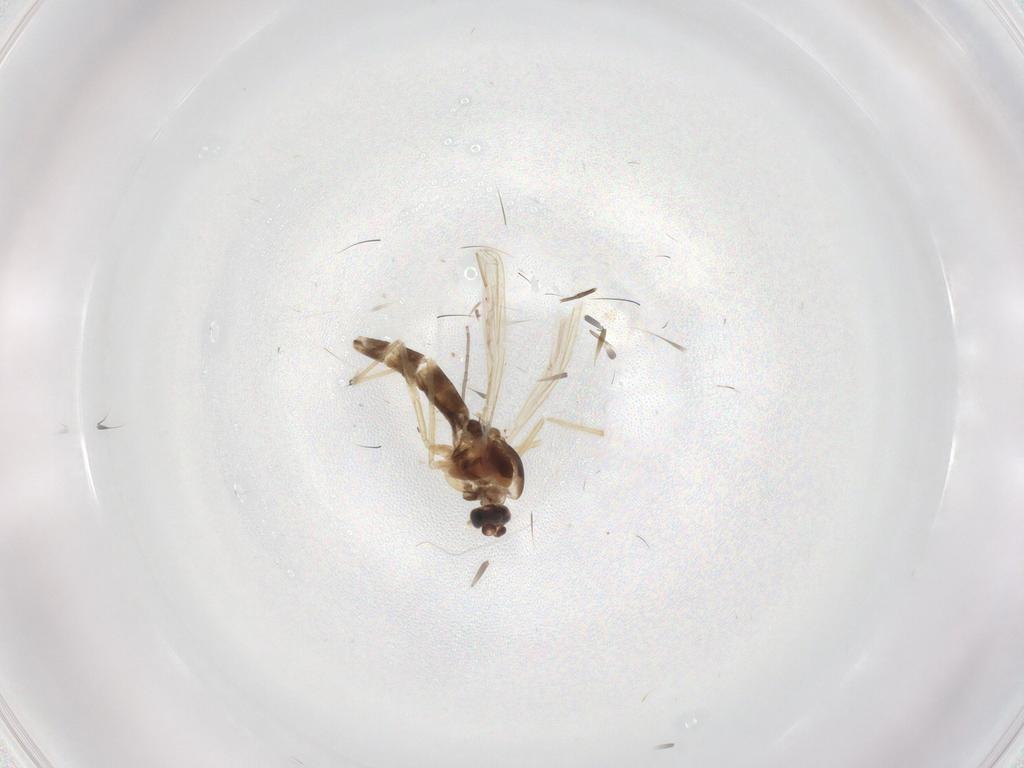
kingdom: Animalia
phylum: Arthropoda
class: Insecta
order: Diptera
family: Chironomidae
